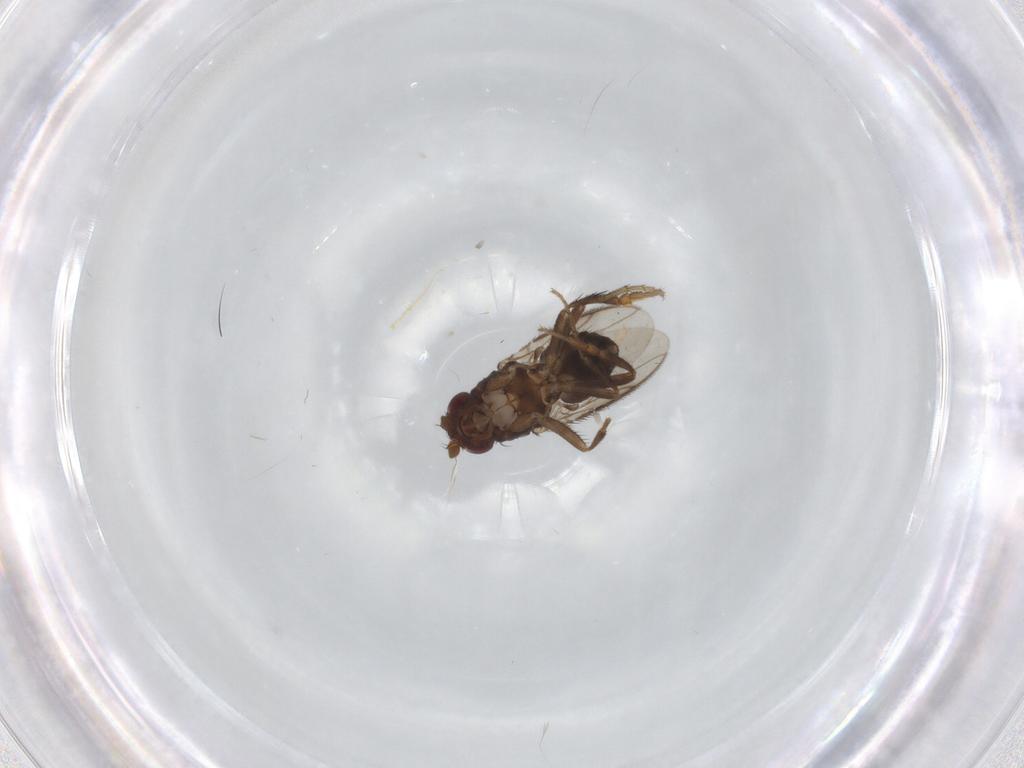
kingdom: Animalia
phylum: Arthropoda
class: Insecta
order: Diptera
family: Sphaeroceridae
